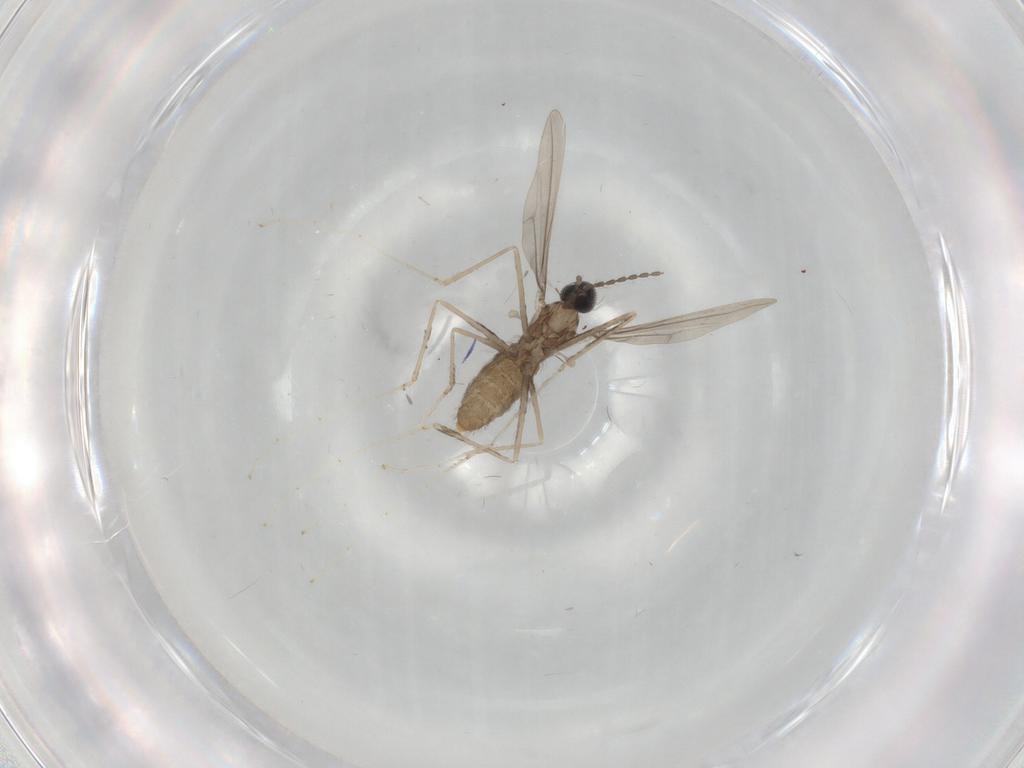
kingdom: Animalia
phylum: Arthropoda
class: Insecta
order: Diptera
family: Cecidomyiidae
